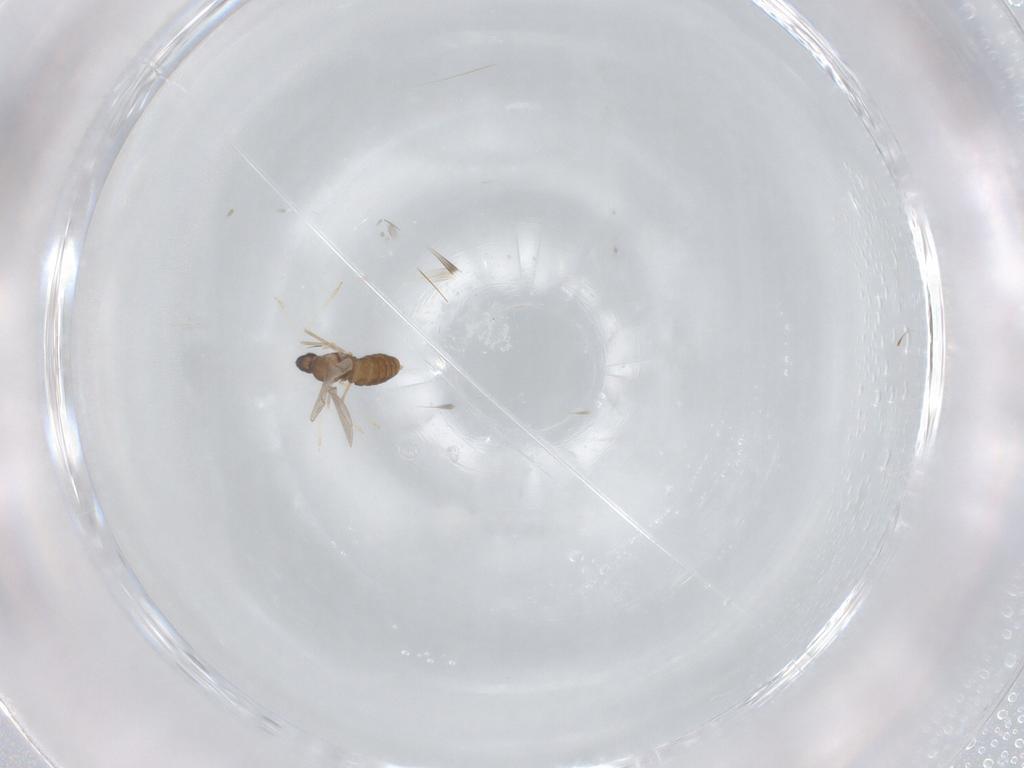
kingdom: Animalia
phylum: Arthropoda
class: Insecta
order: Diptera
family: Cecidomyiidae
